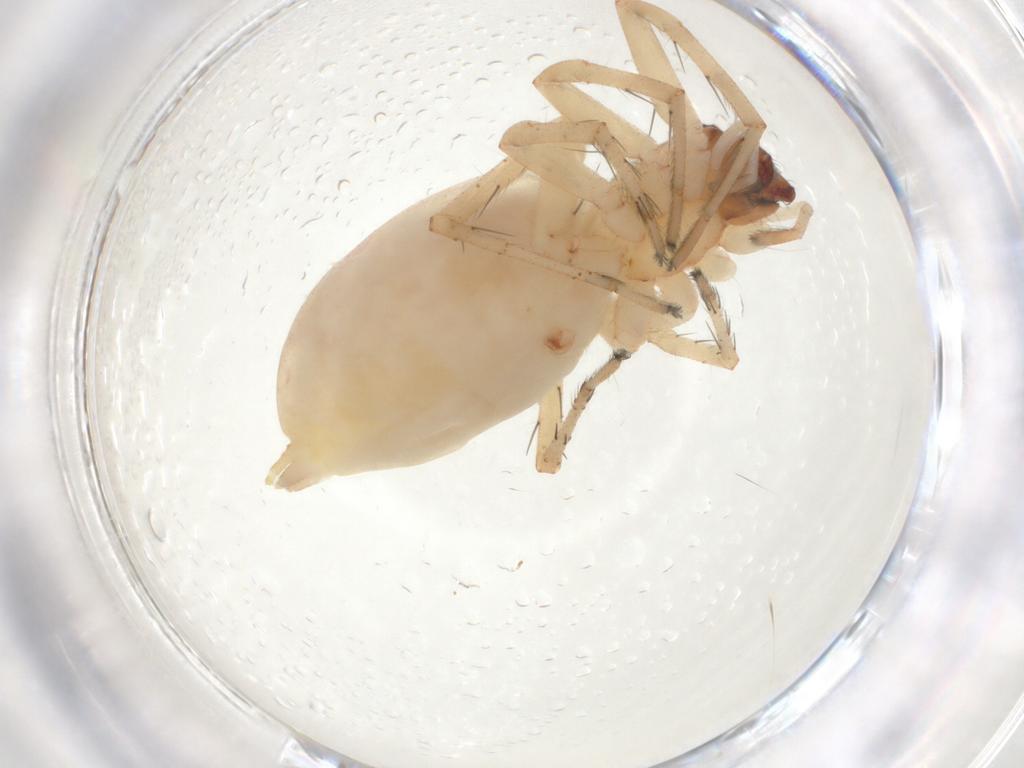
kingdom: Animalia
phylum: Arthropoda
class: Arachnida
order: Araneae
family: Anyphaenidae
